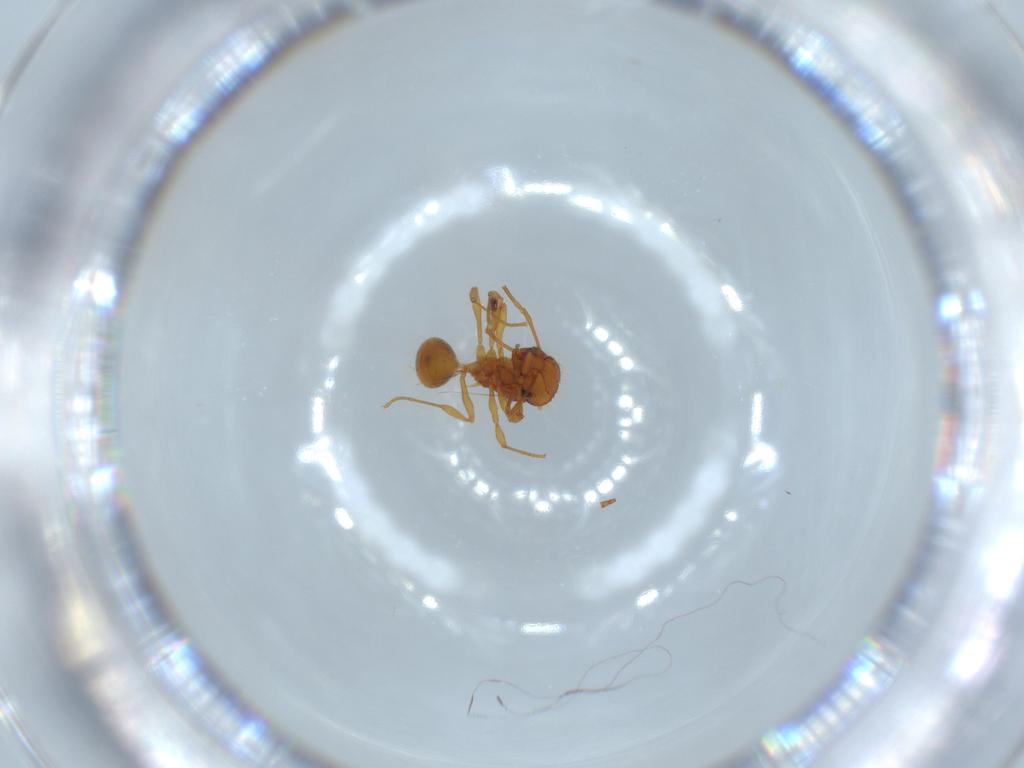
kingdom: Animalia
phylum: Arthropoda
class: Insecta
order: Hymenoptera
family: Formicidae
